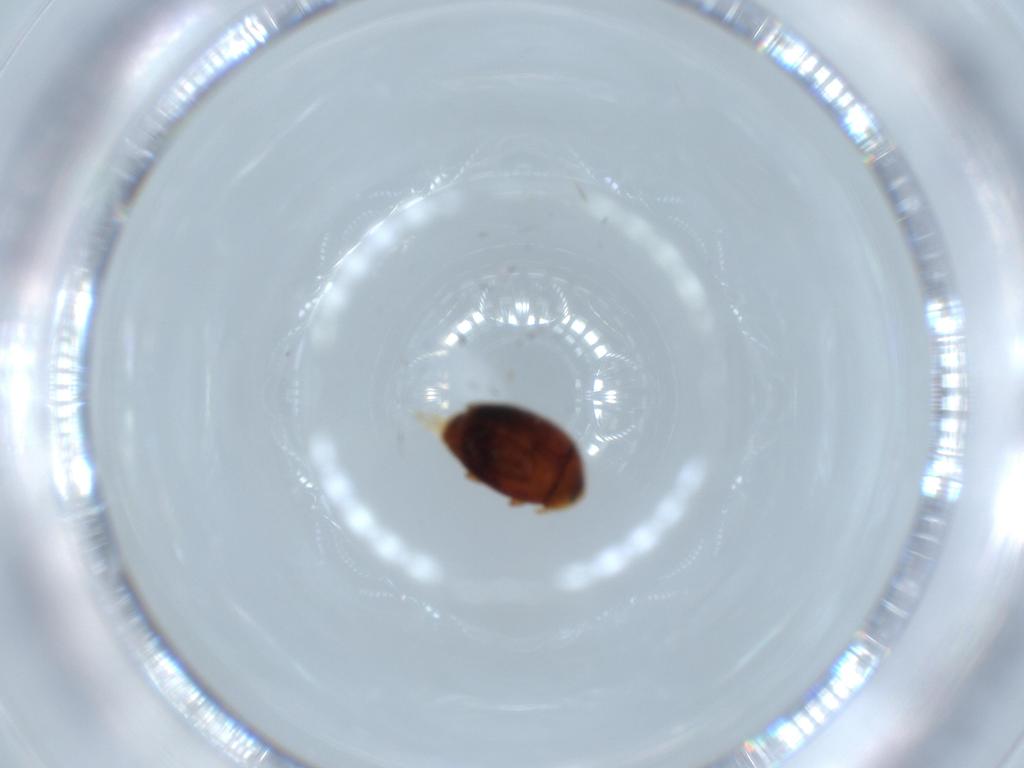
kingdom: Animalia
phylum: Arthropoda
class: Insecta
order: Coleoptera
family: Corylophidae
